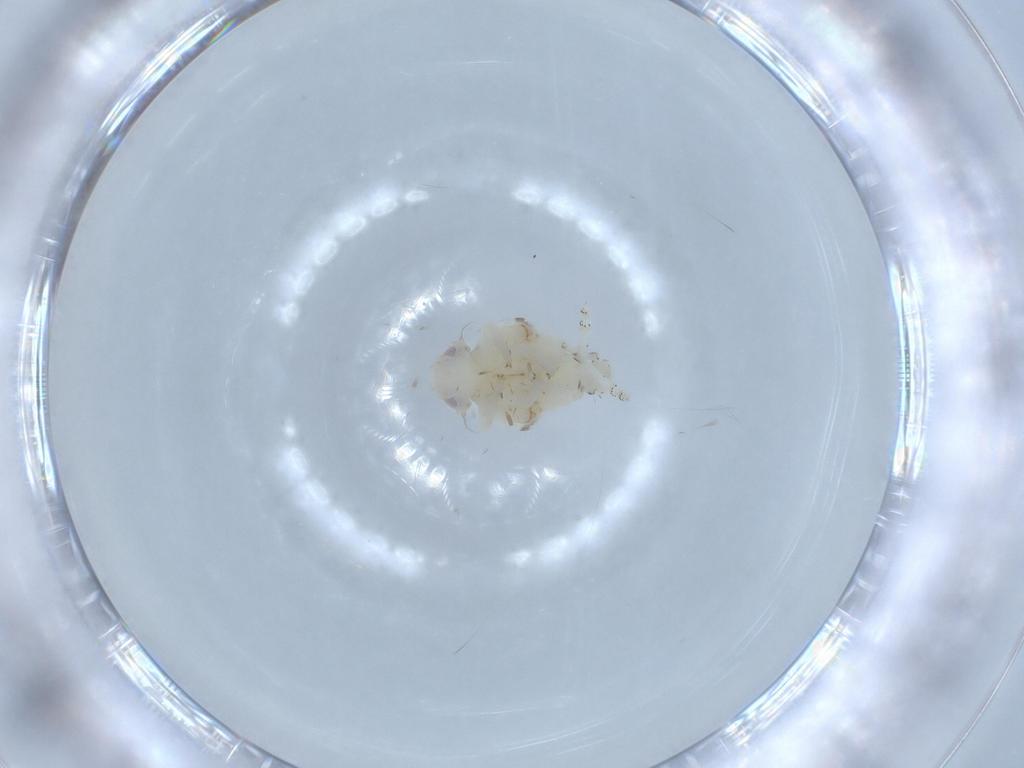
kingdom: Animalia
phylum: Arthropoda
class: Insecta
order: Hemiptera
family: Nogodinidae
